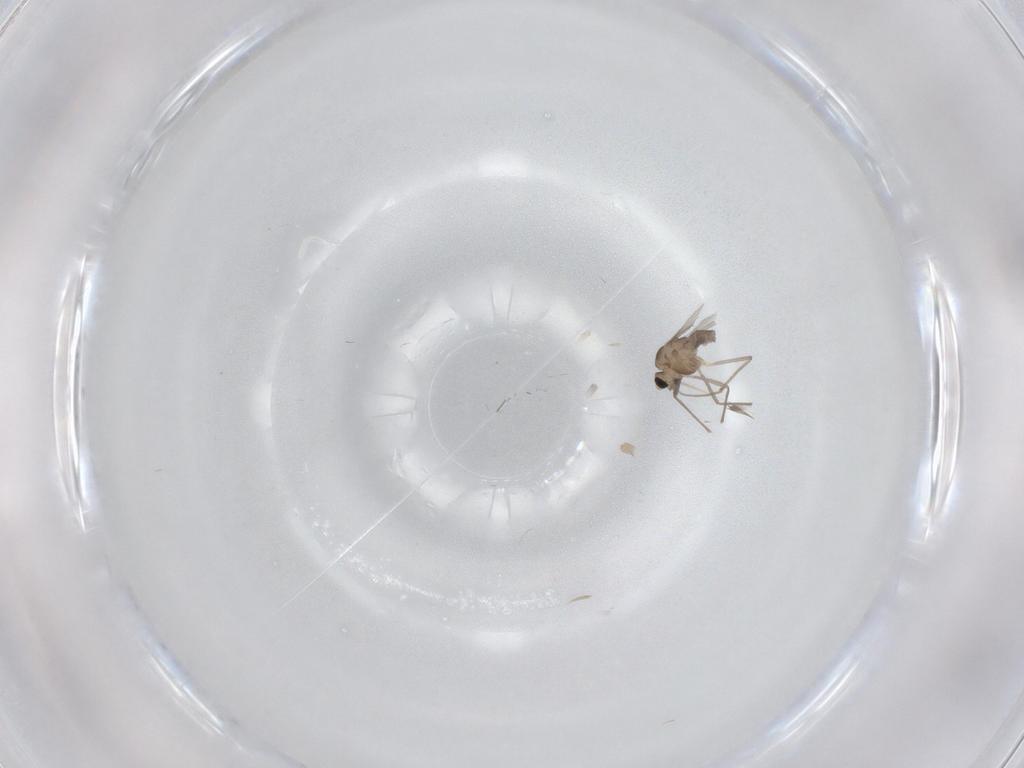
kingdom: Animalia
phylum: Arthropoda
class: Insecta
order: Diptera
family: Chironomidae
